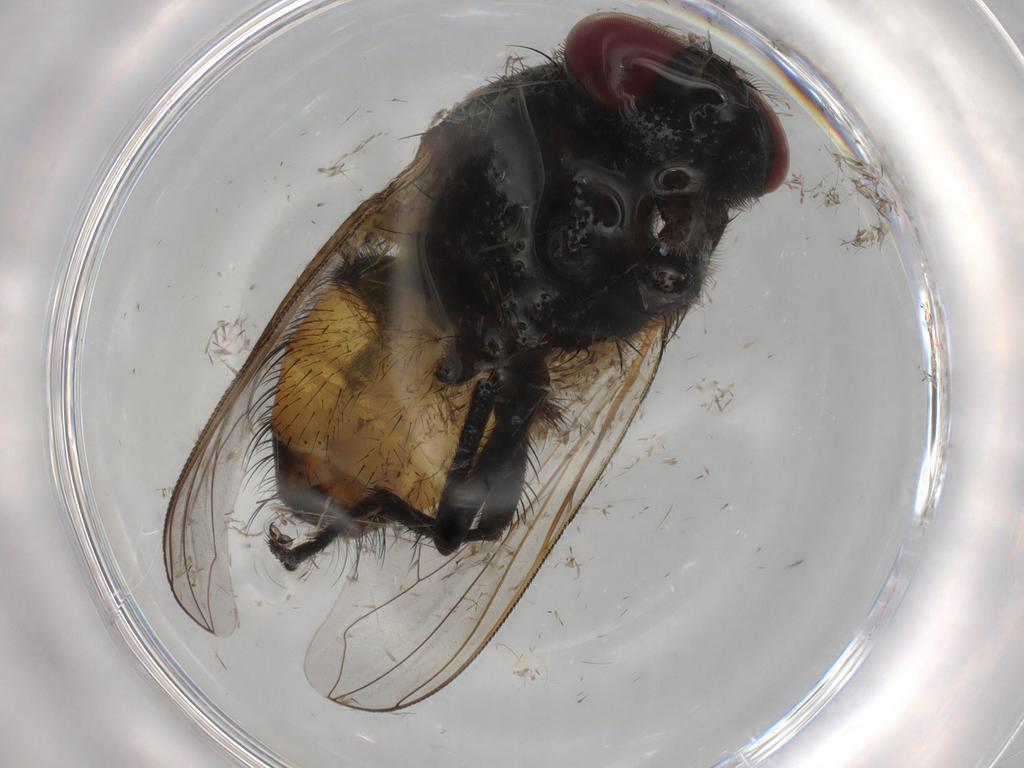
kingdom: Animalia
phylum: Arthropoda
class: Insecta
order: Diptera
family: Muscidae
